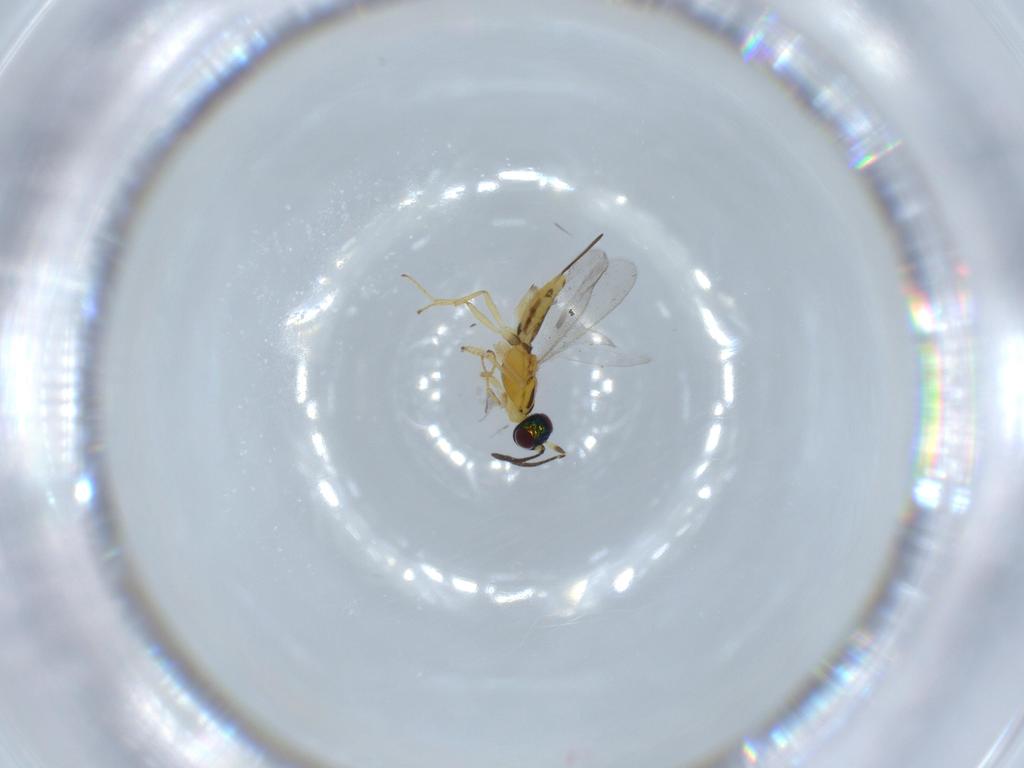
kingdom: Animalia
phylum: Arthropoda
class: Insecta
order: Hymenoptera
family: Eupelmidae
